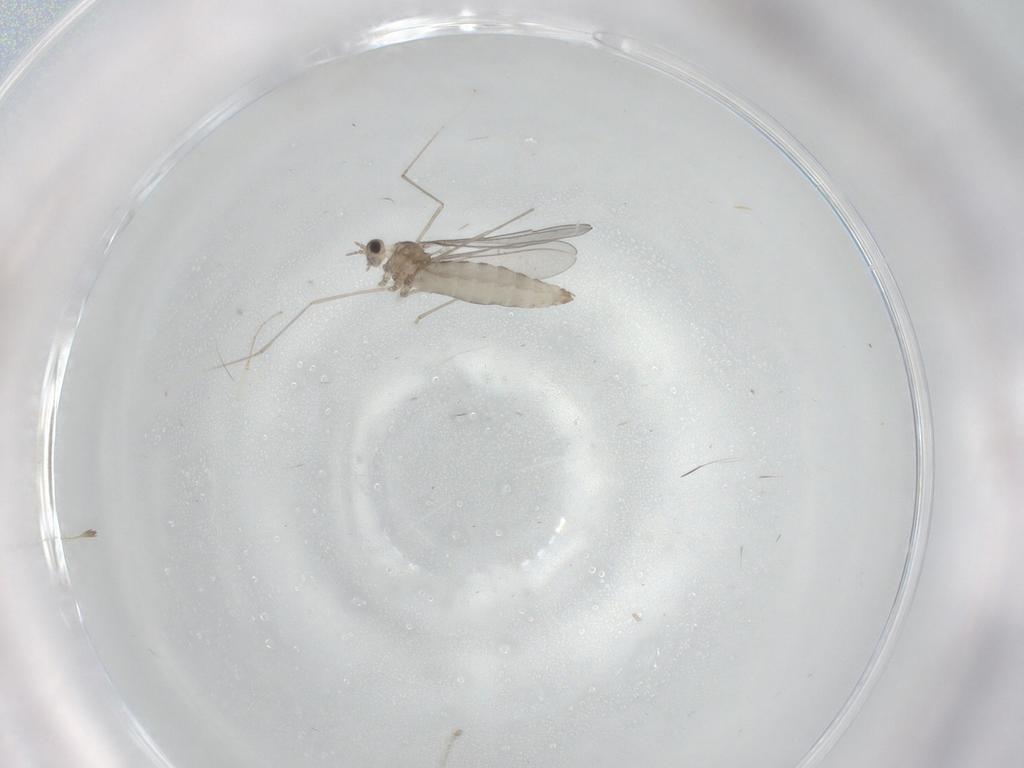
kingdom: Animalia
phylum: Arthropoda
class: Insecta
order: Diptera
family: Cecidomyiidae
